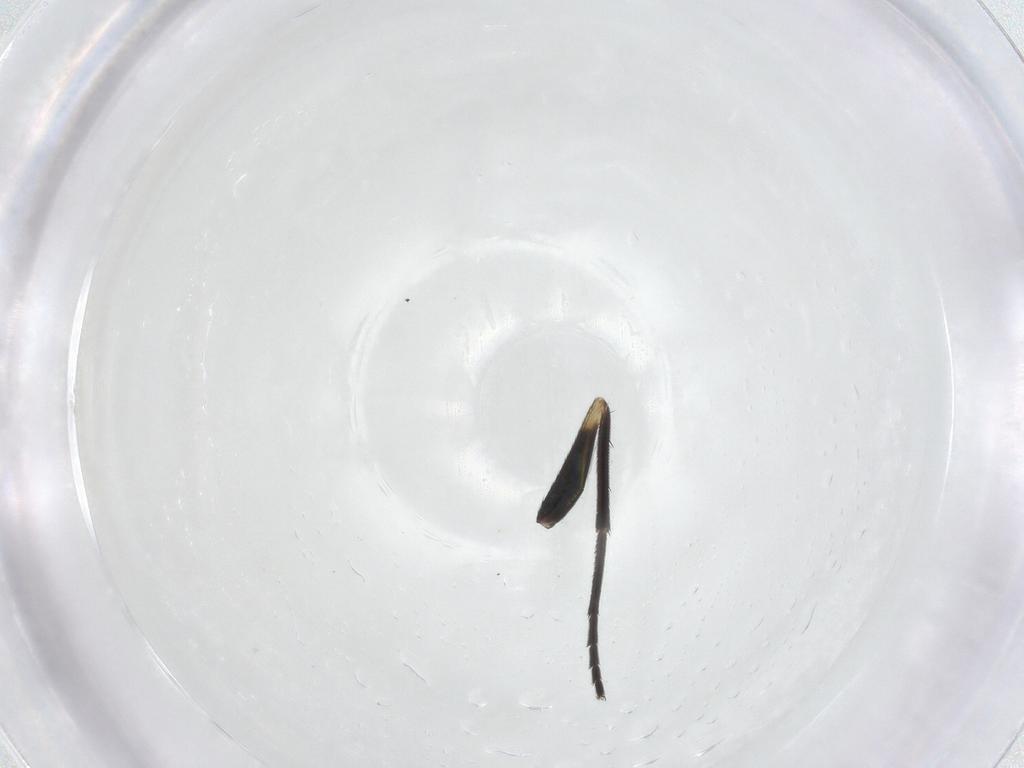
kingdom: Animalia
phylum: Arthropoda
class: Insecta
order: Diptera
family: Dolichopodidae
